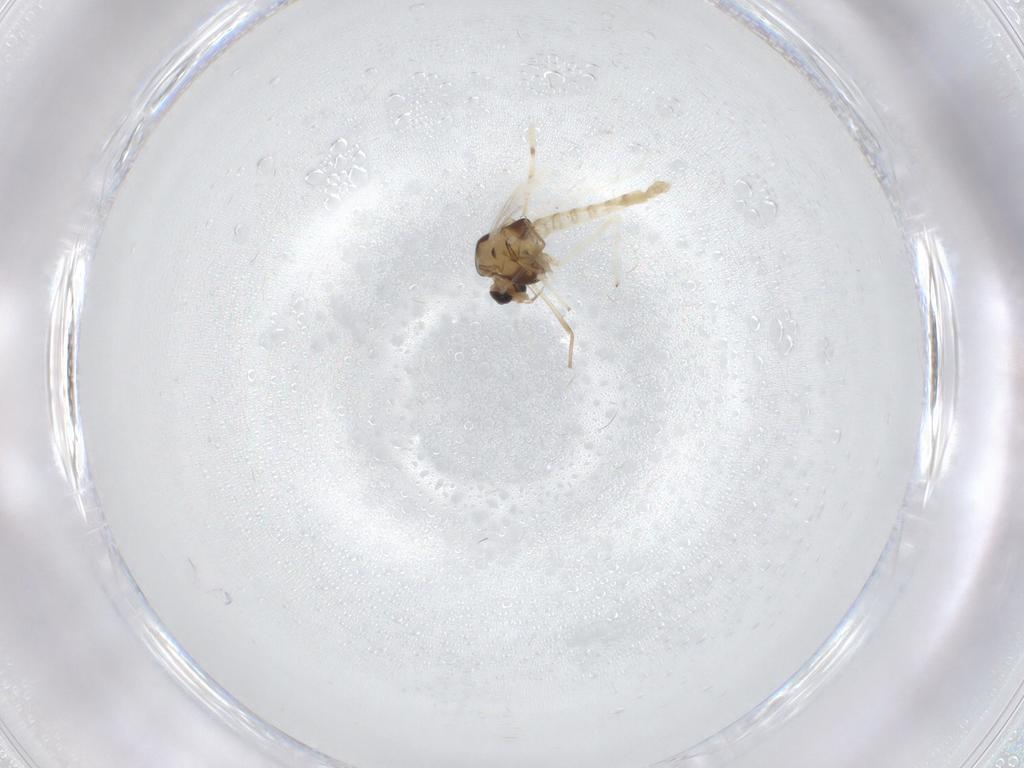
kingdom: Animalia
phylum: Arthropoda
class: Insecta
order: Diptera
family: Chironomidae
